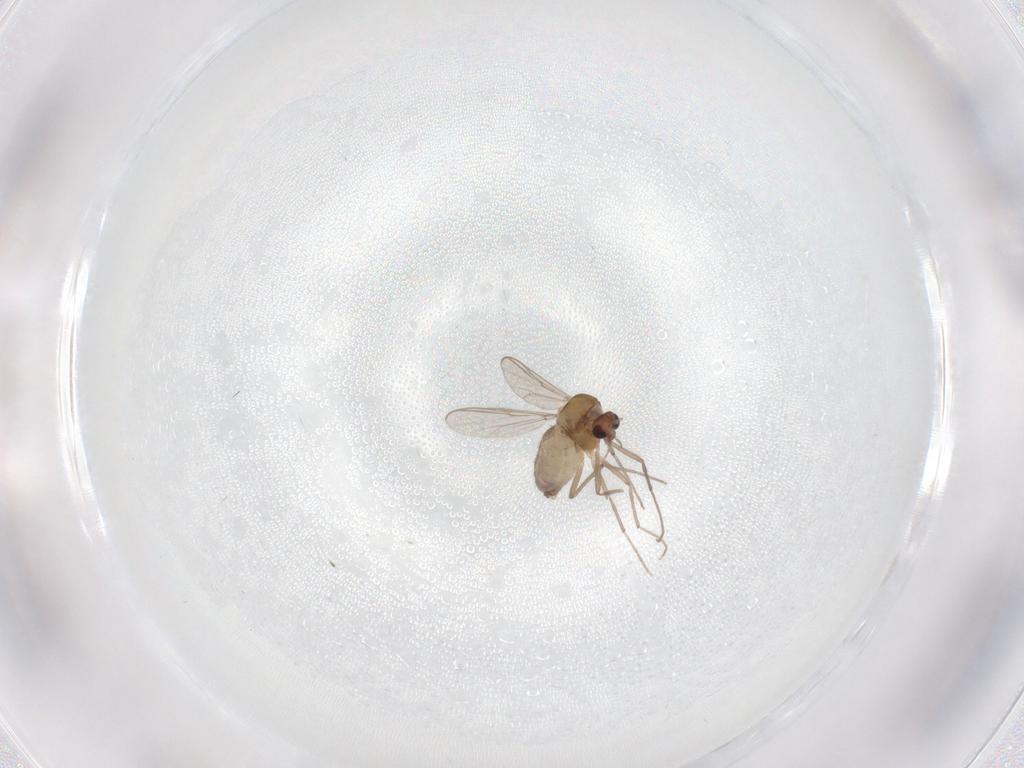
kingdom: Animalia
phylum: Arthropoda
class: Insecta
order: Diptera
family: Chironomidae
